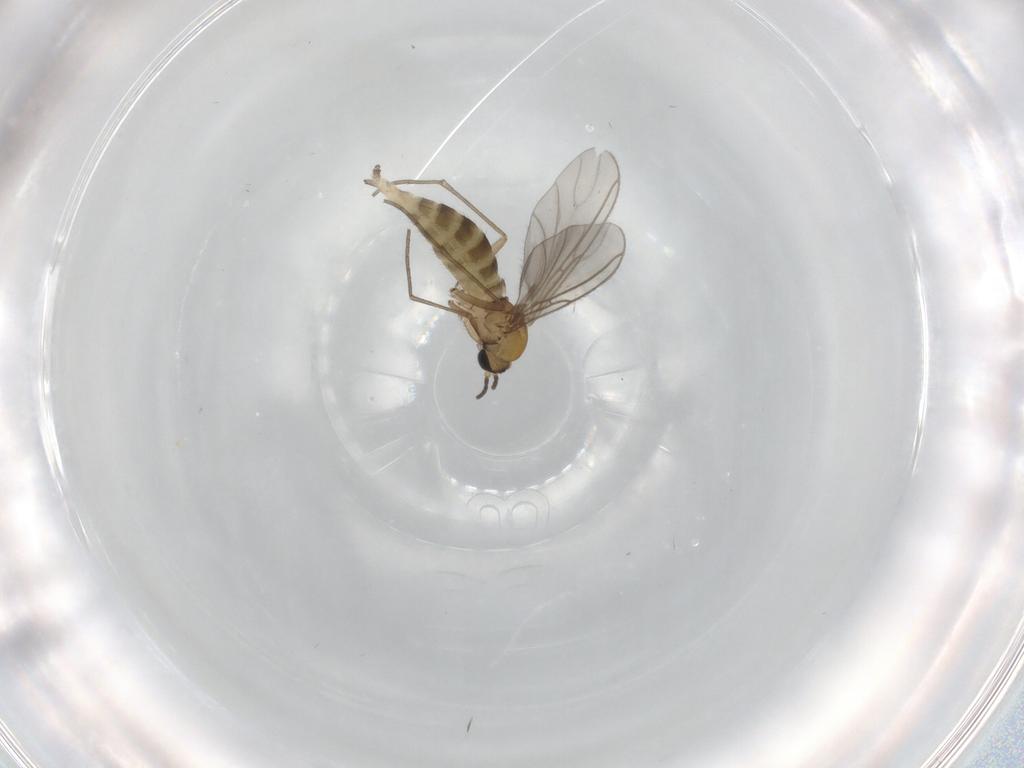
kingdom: Animalia
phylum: Arthropoda
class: Insecta
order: Diptera
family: Sciaridae
